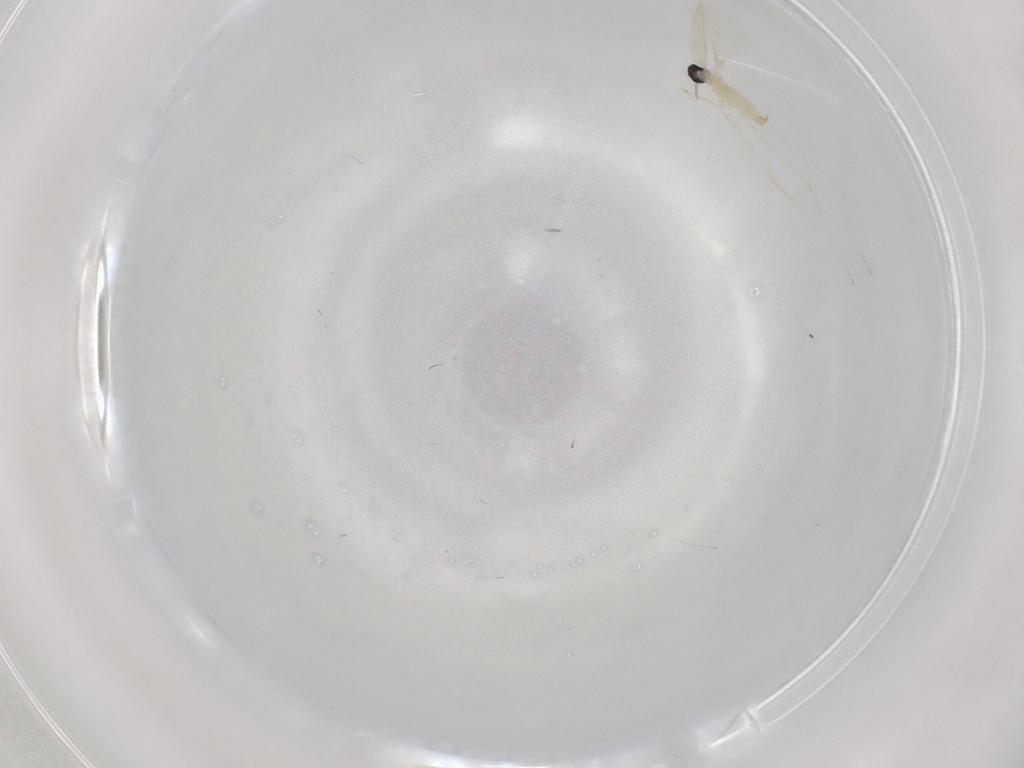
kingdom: Animalia
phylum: Arthropoda
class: Insecta
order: Diptera
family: Cecidomyiidae
